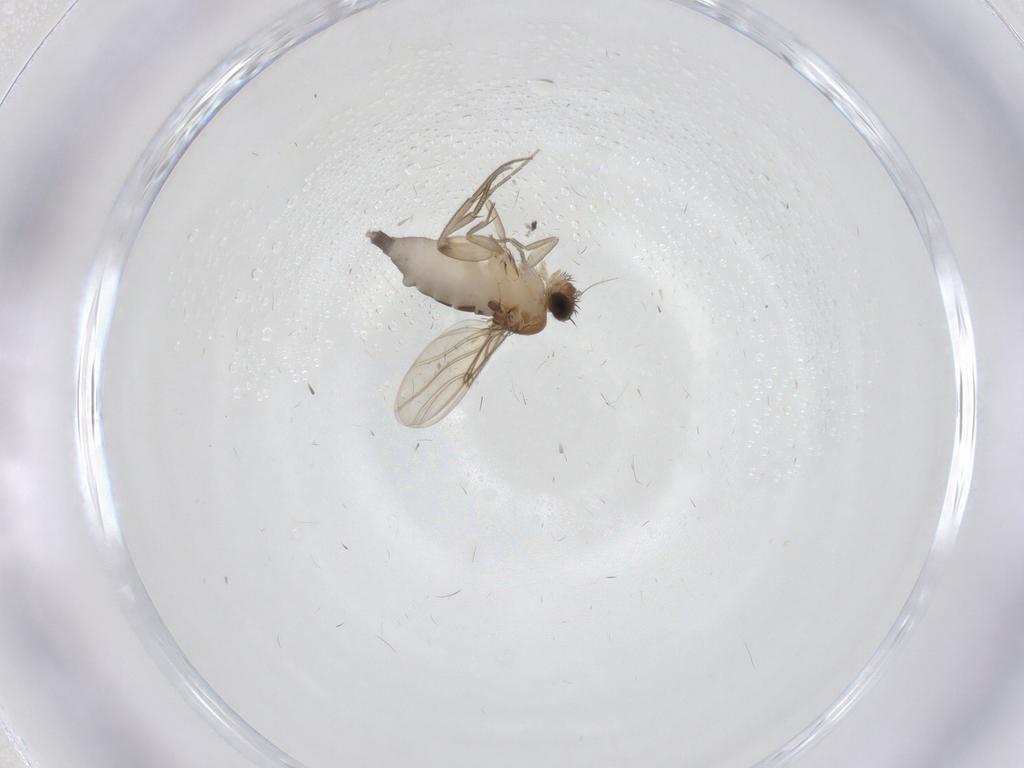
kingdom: Animalia
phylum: Arthropoda
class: Insecta
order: Diptera
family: Phoridae
